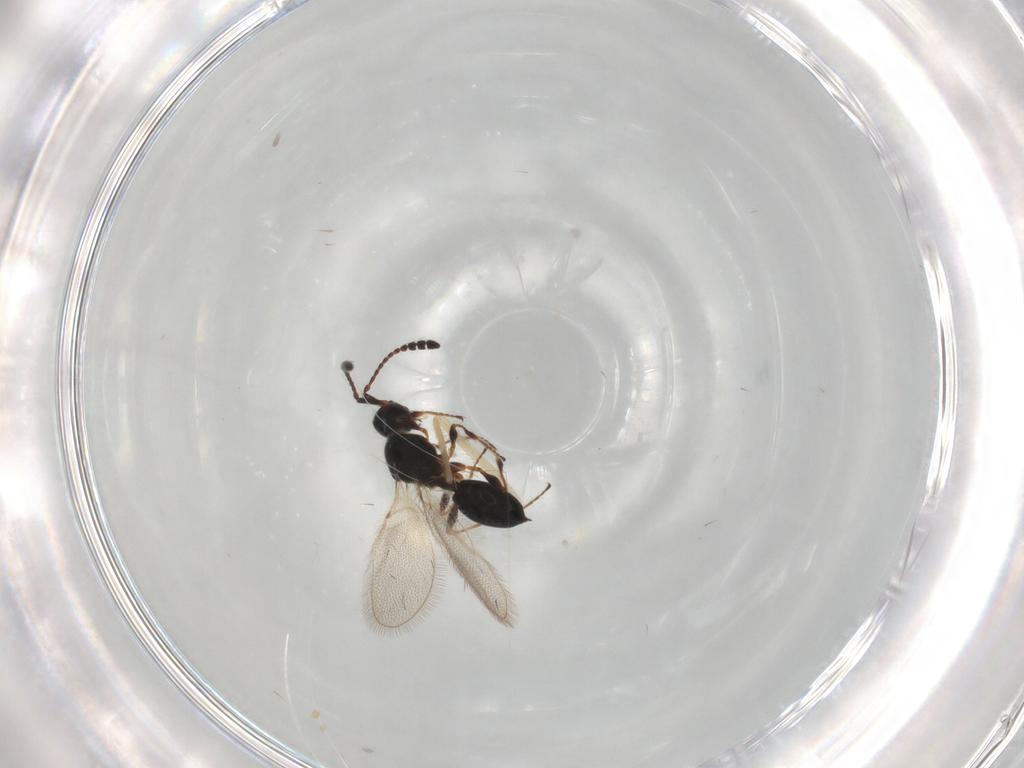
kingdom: Animalia
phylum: Arthropoda
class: Insecta
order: Hymenoptera
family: Diapriidae
